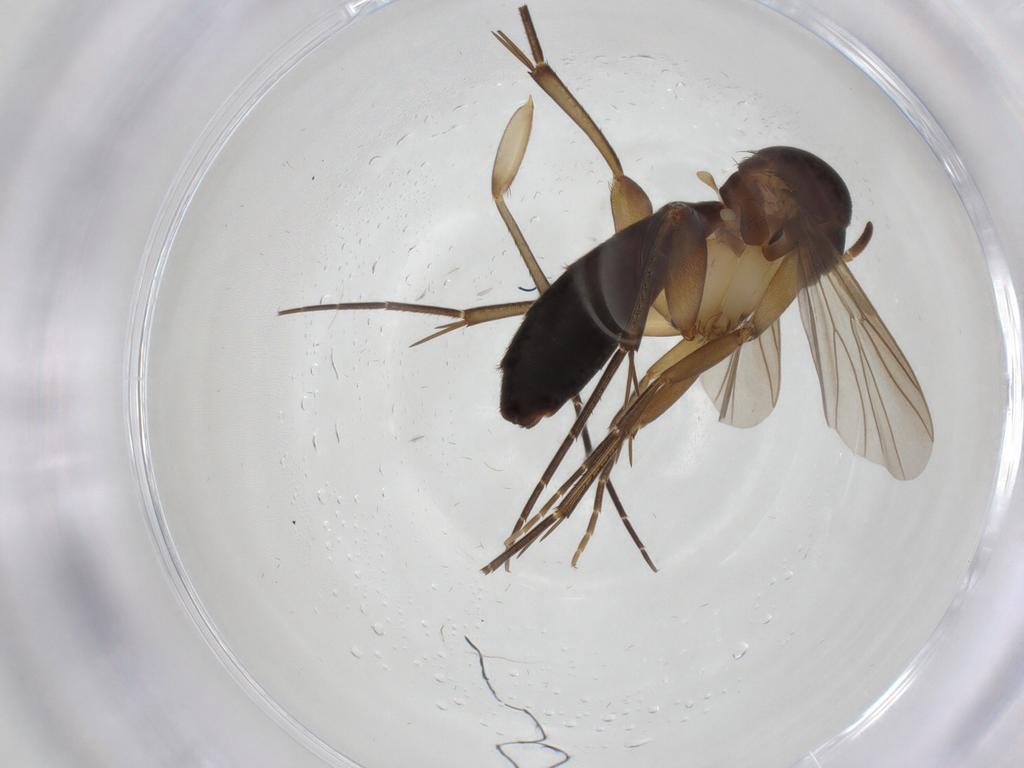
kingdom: Animalia
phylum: Arthropoda
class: Insecta
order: Diptera
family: Mycetophilidae
